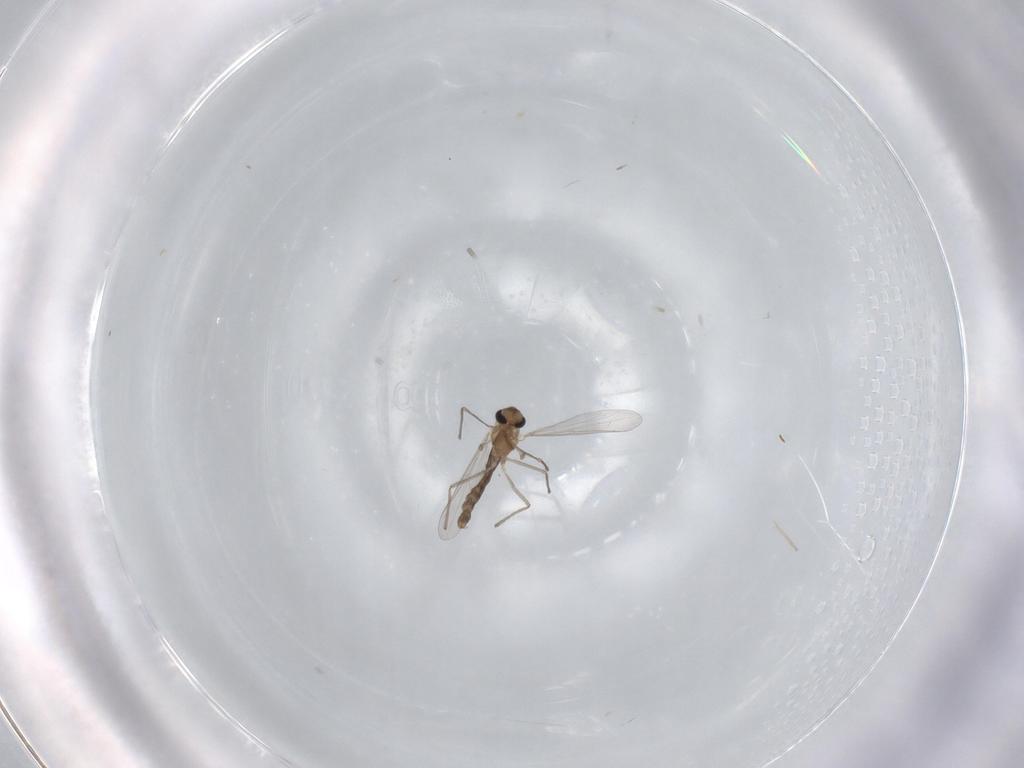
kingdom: Animalia
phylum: Arthropoda
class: Insecta
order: Diptera
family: Chironomidae
